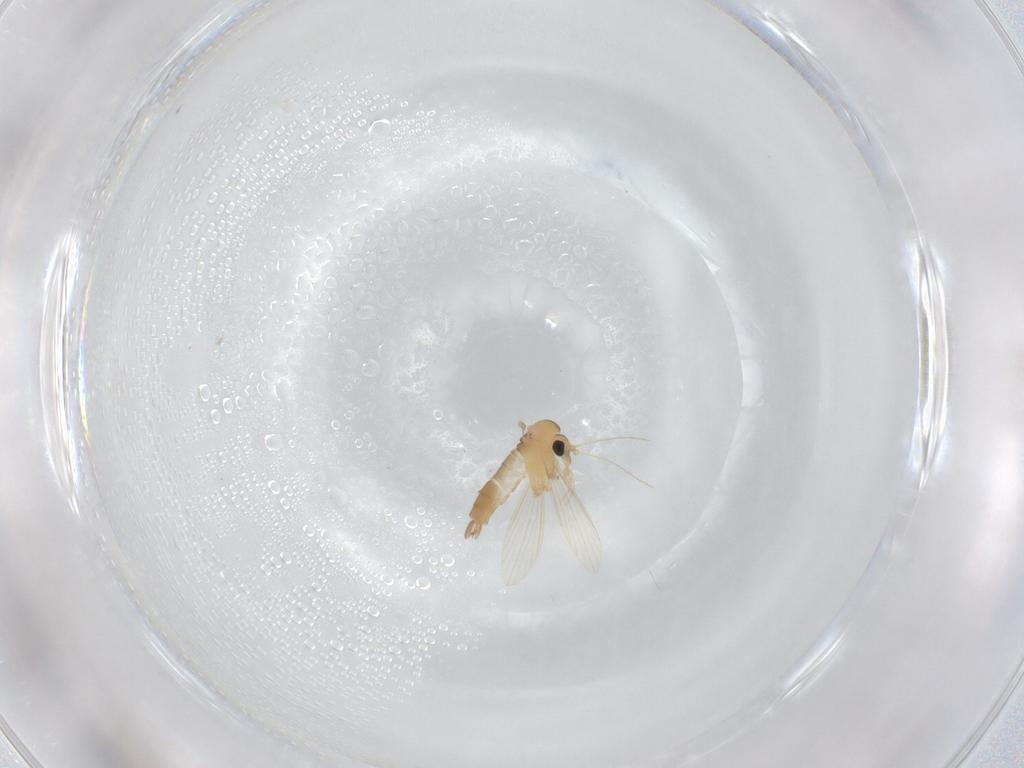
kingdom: Animalia
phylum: Arthropoda
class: Insecta
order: Diptera
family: Psychodidae
